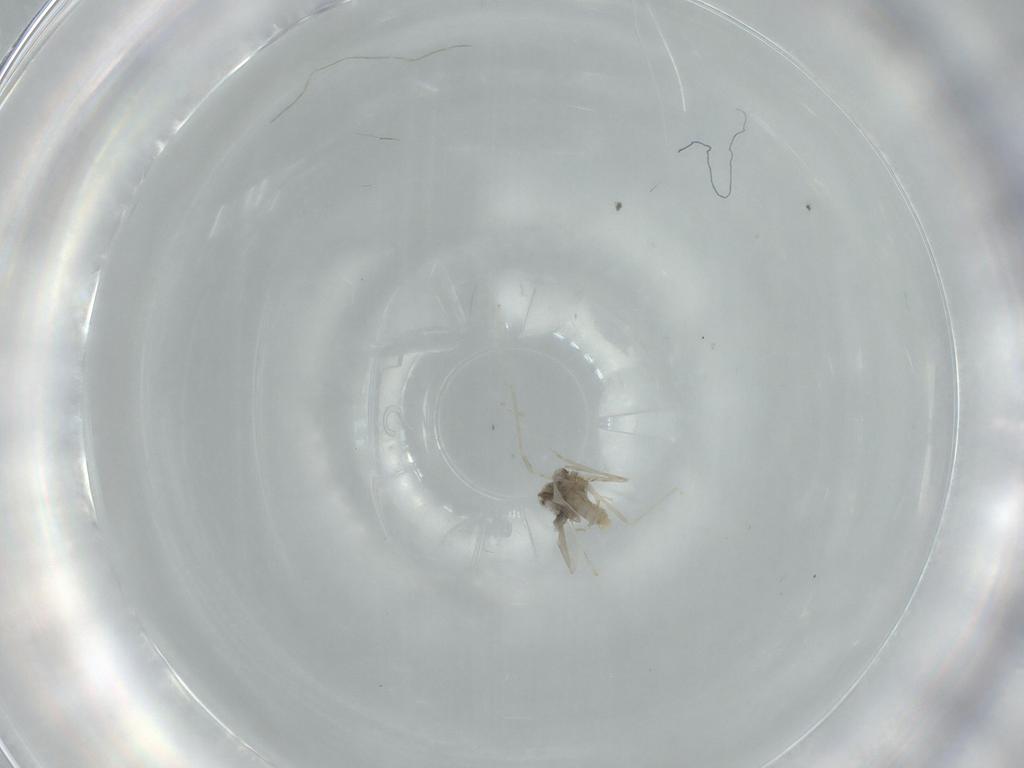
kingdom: Animalia
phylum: Arthropoda
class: Insecta
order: Diptera
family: Cecidomyiidae
